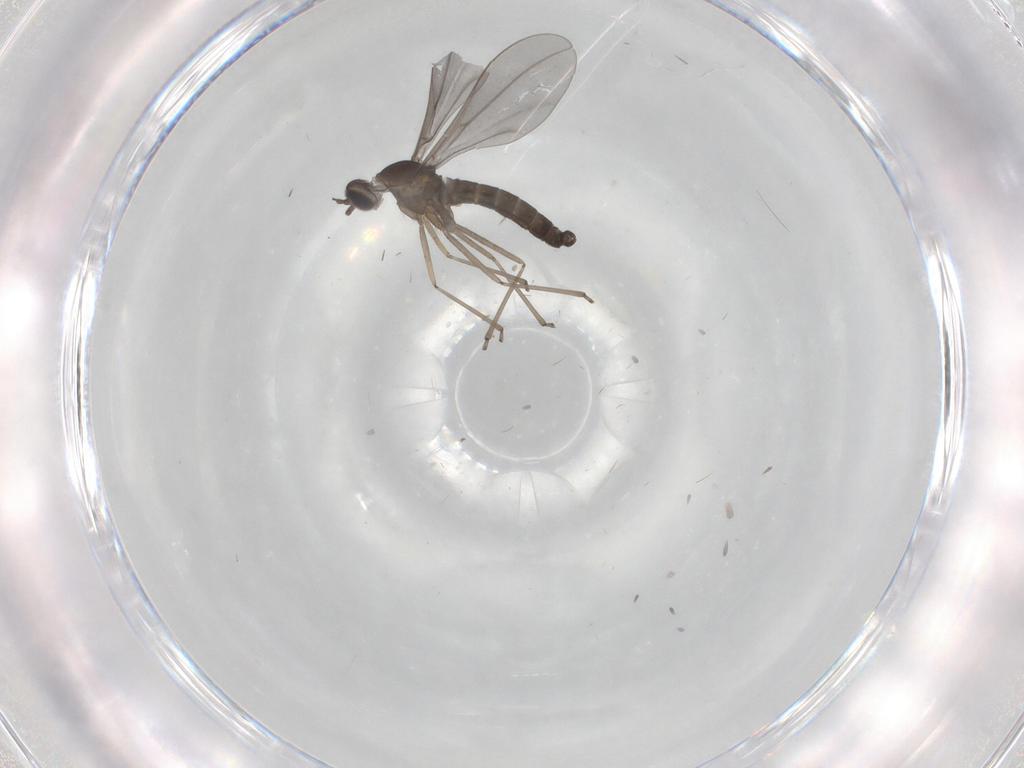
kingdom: Animalia
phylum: Arthropoda
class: Insecta
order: Diptera
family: Cecidomyiidae
